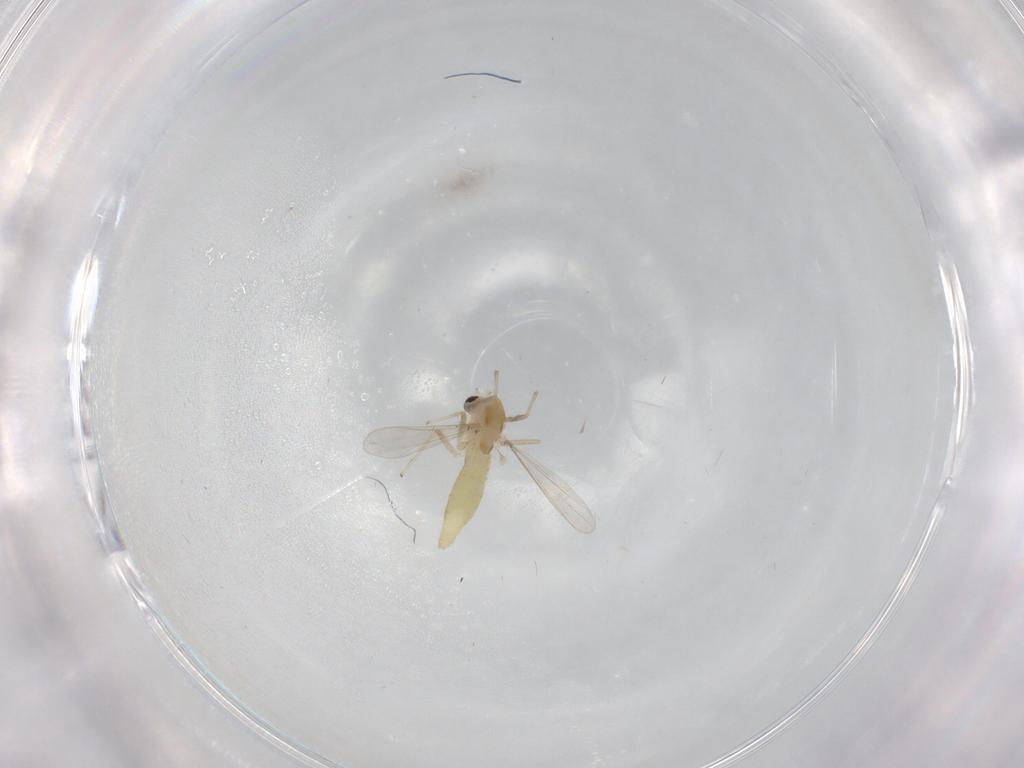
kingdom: Animalia
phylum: Arthropoda
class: Insecta
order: Diptera
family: Chironomidae
